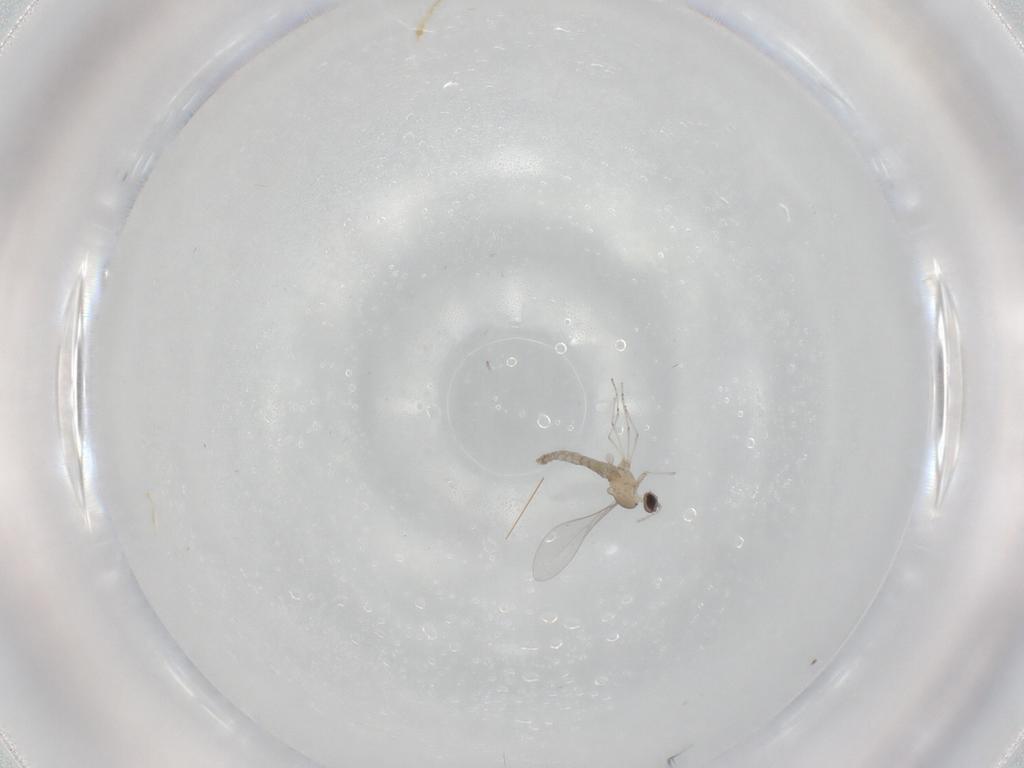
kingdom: Animalia
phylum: Arthropoda
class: Insecta
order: Diptera
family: Cecidomyiidae
